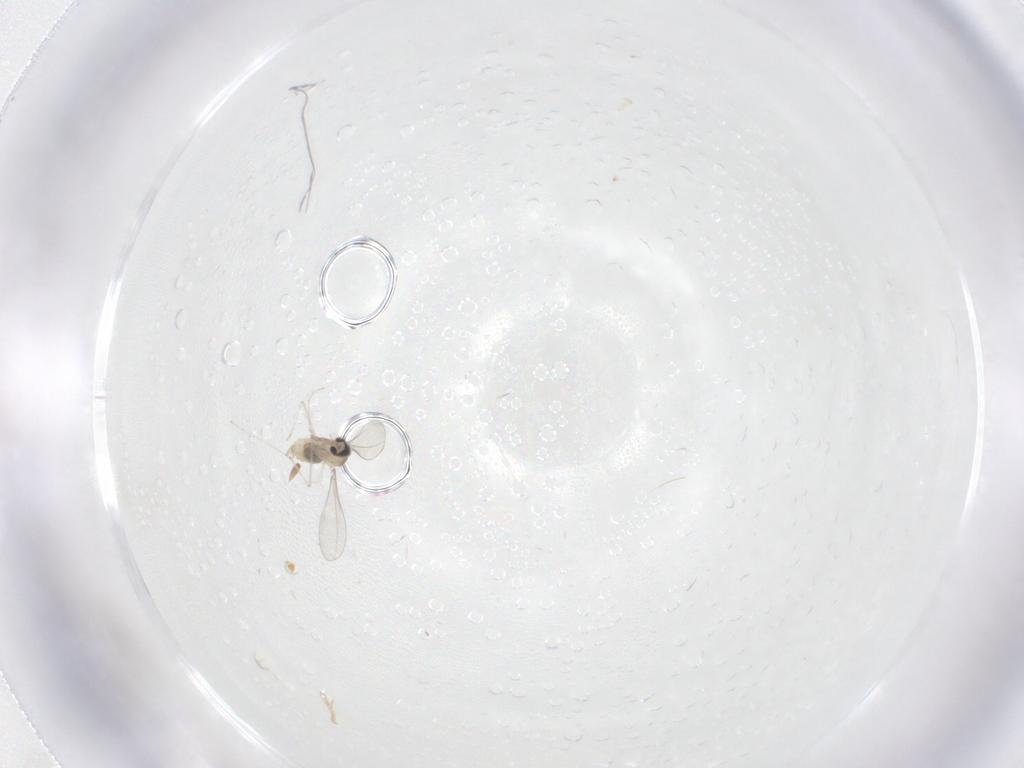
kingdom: Animalia
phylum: Arthropoda
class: Insecta
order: Diptera
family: Cecidomyiidae
